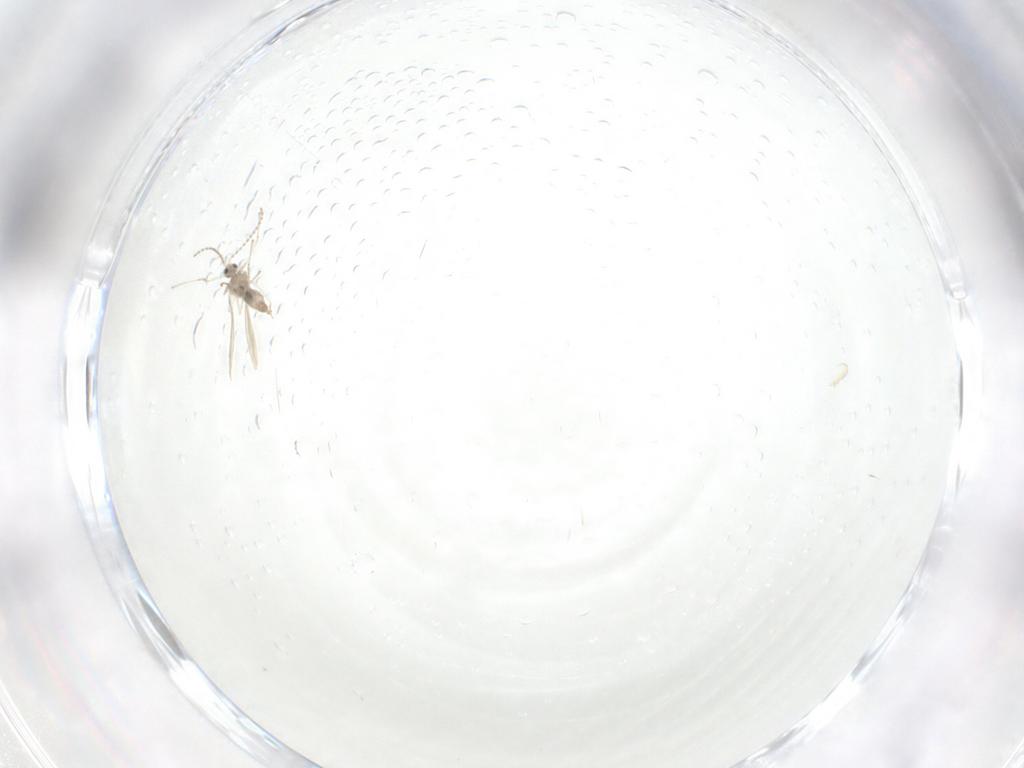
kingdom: Animalia
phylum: Arthropoda
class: Insecta
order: Diptera
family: Cecidomyiidae
